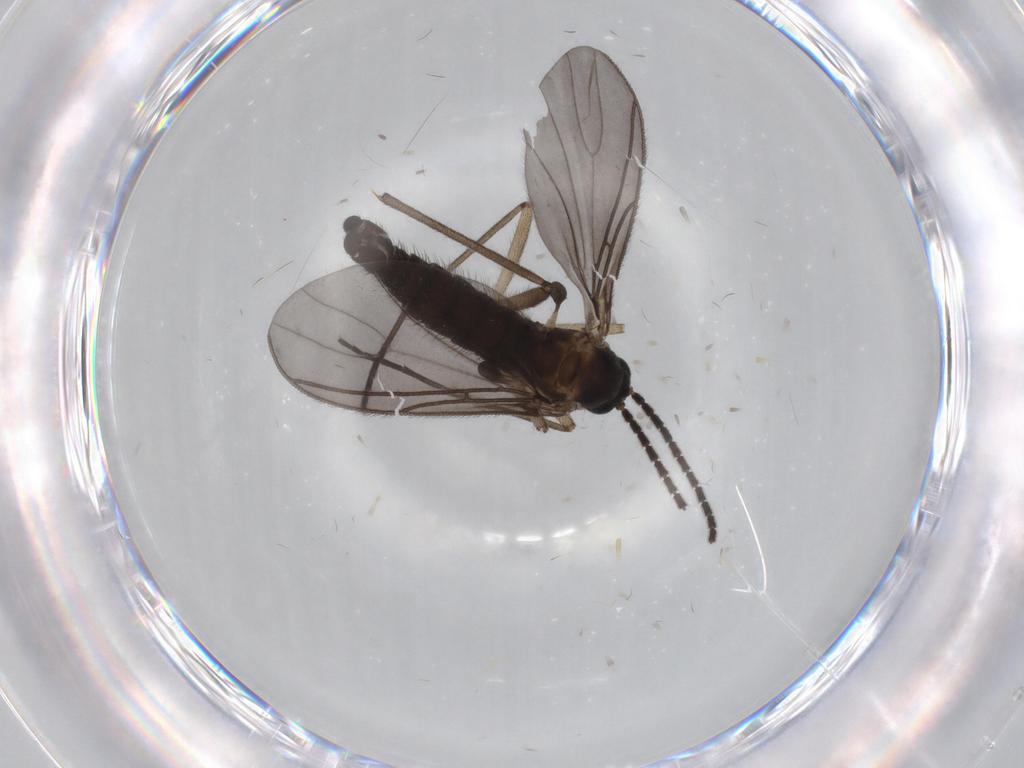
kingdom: Animalia
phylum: Arthropoda
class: Insecta
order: Diptera
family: Sciaridae
